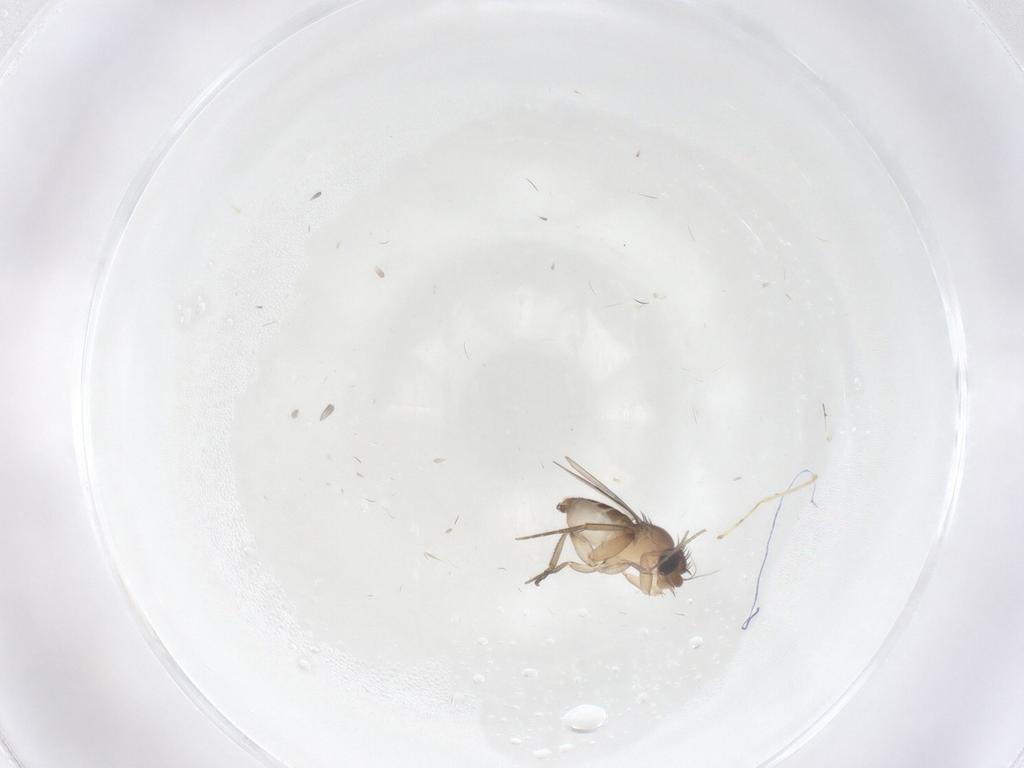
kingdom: Animalia
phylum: Arthropoda
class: Insecta
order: Diptera
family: Phoridae
